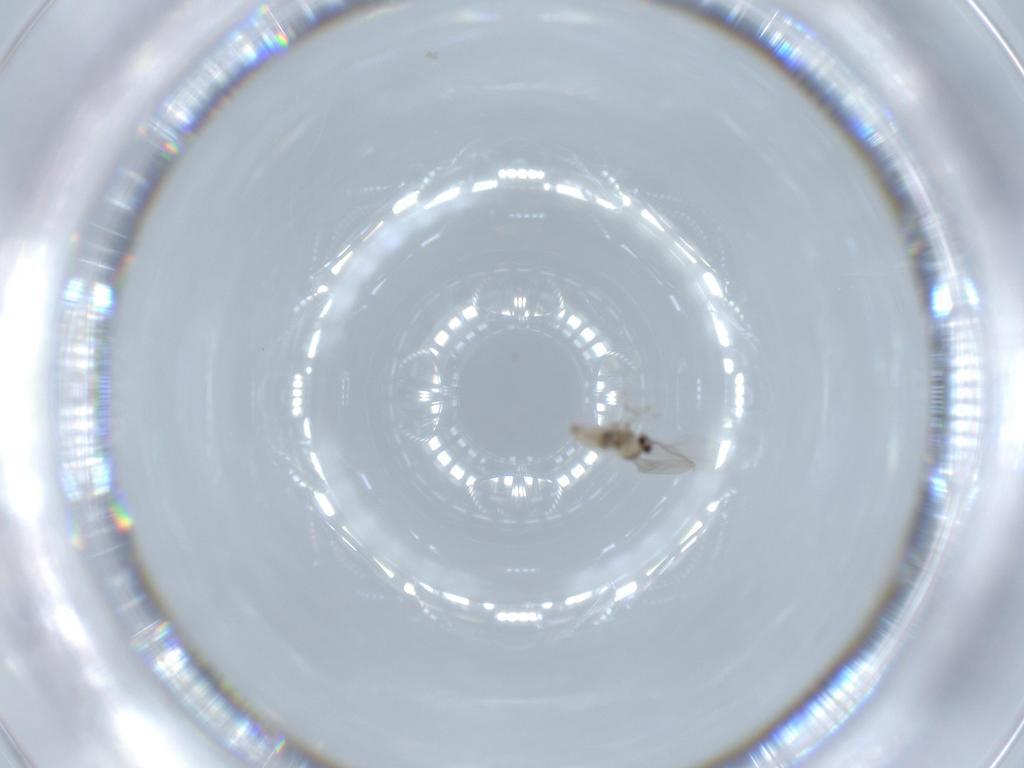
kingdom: Animalia
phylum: Arthropoda
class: Insecta
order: Diptera
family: Cecidomyiidae
